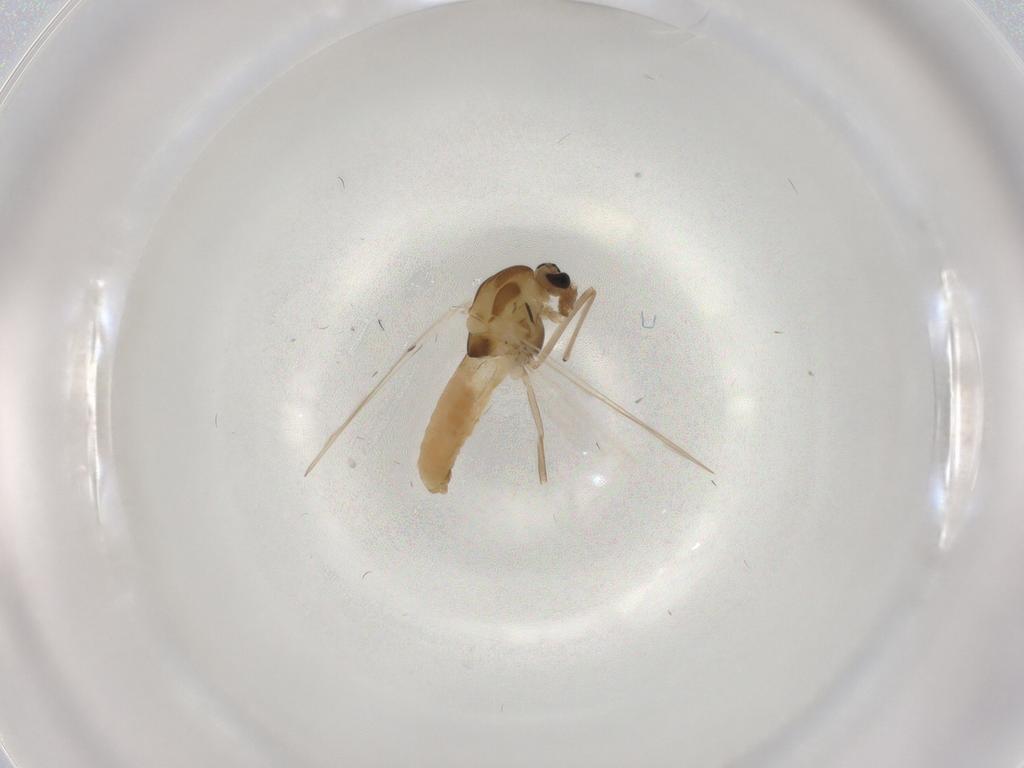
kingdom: Animalia
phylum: Arthropoda
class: Insecta
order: Diptera
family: Chironomidae
